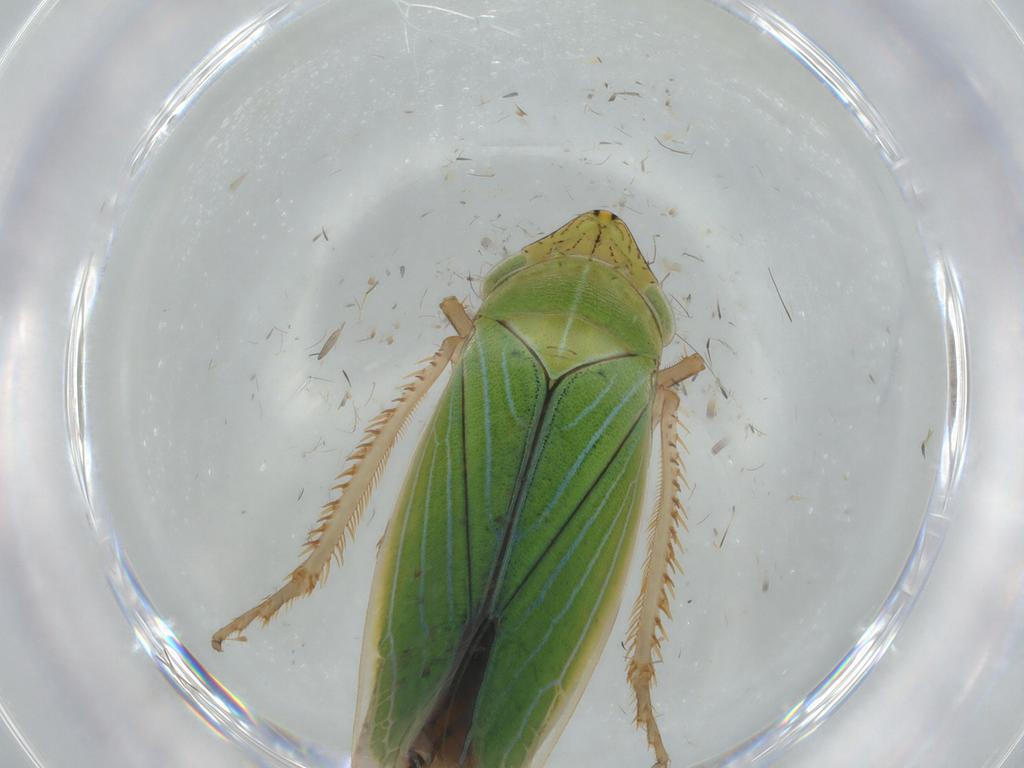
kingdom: Animalia
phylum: Arthropoda
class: Insecta
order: Hemiptera
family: Cicadellidae
